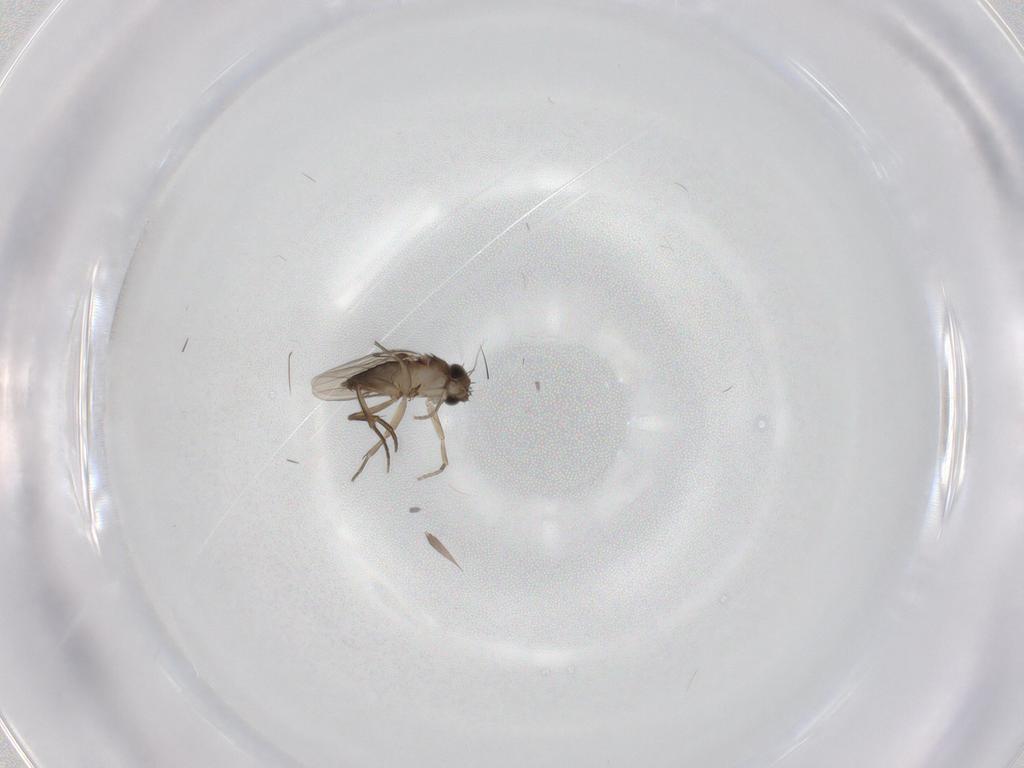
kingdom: Animalia
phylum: Arthropoda
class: Insecta
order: Diptera
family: Phoridae
